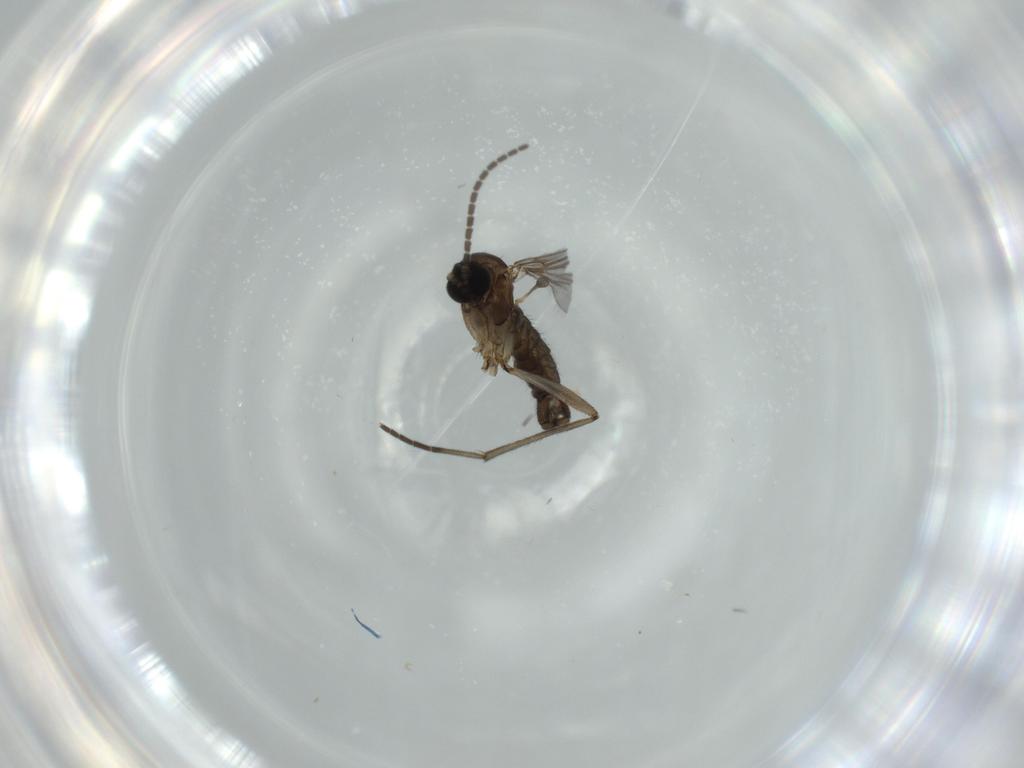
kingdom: Animalia
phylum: Arthropoda
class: Insecta
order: Diptera
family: Sciaridae
